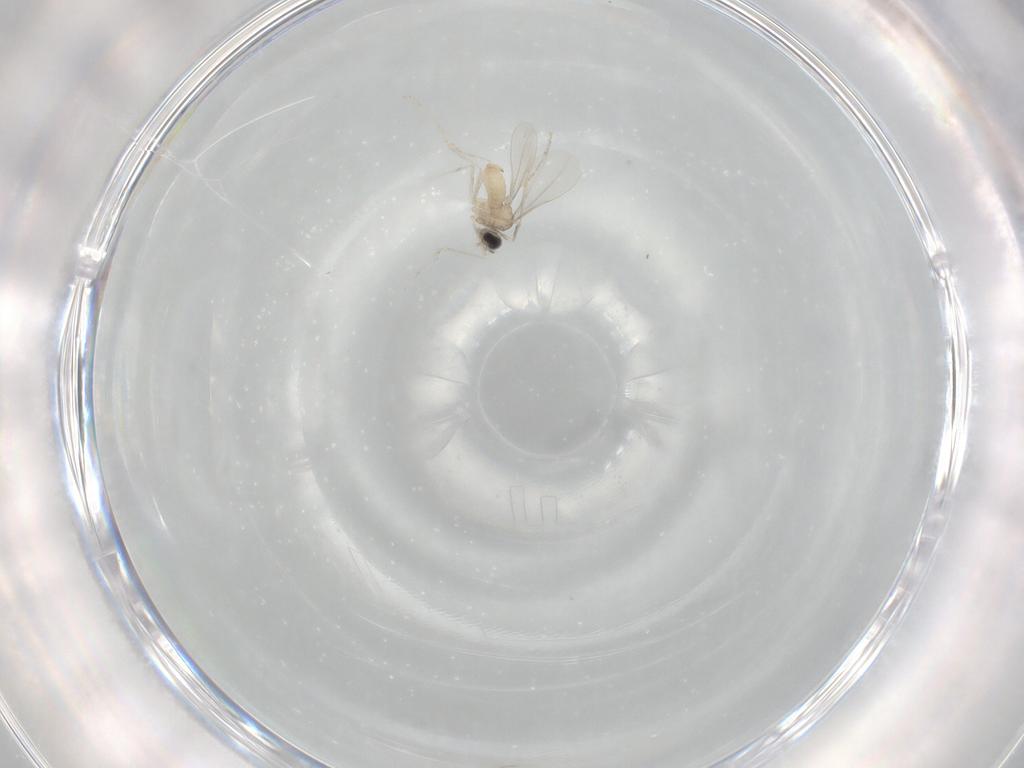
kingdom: Animalia
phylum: Arthropoda
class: Insecta
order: Diptera
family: Cecidomyiidae
